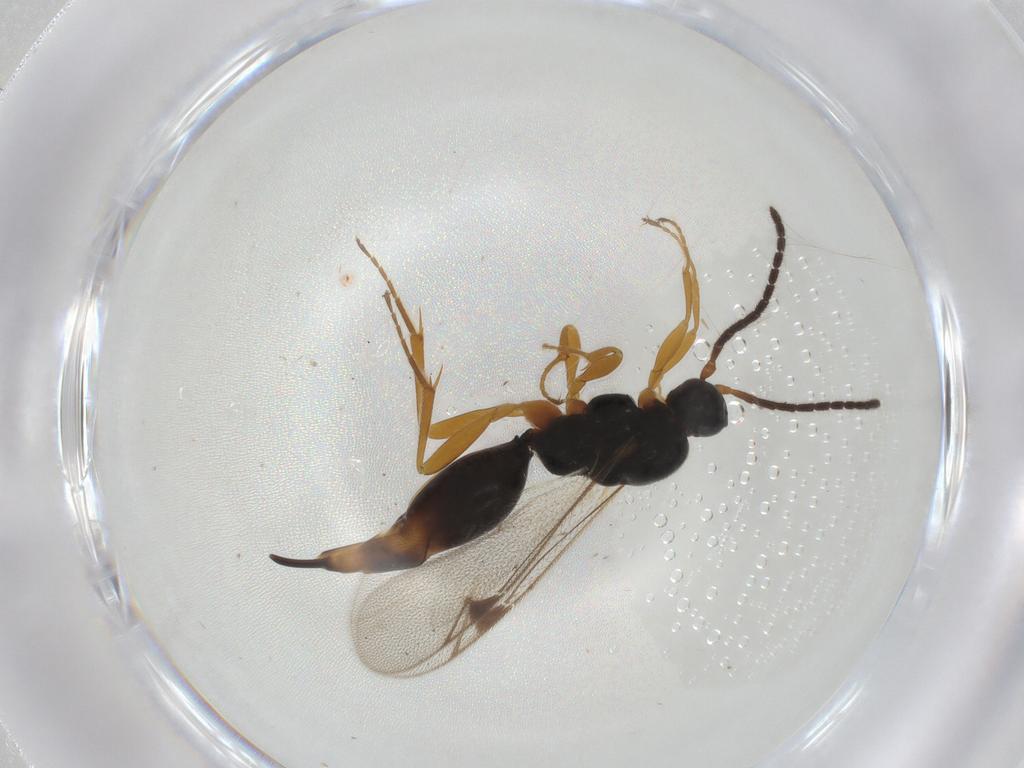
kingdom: Animalia
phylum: Arthropoda
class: Insecta
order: Hymenoptera
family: Proctotrupidae
